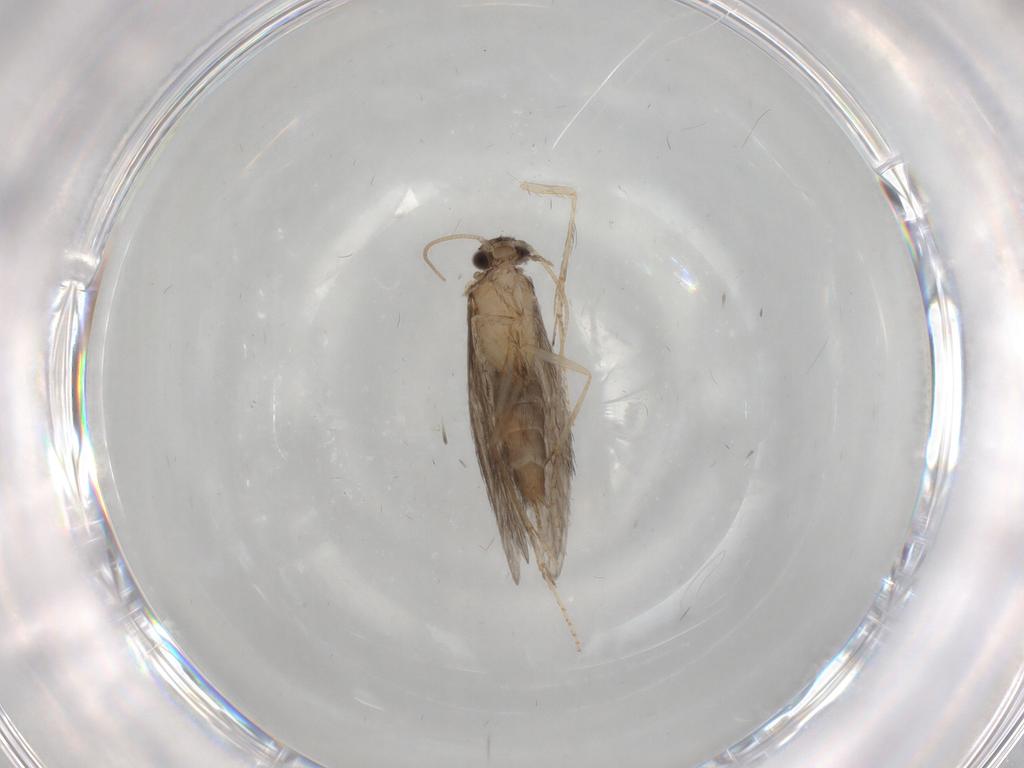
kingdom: Animalia
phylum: Arthropoda
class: Insecta
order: Trichoptera
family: Hydroptilidae
